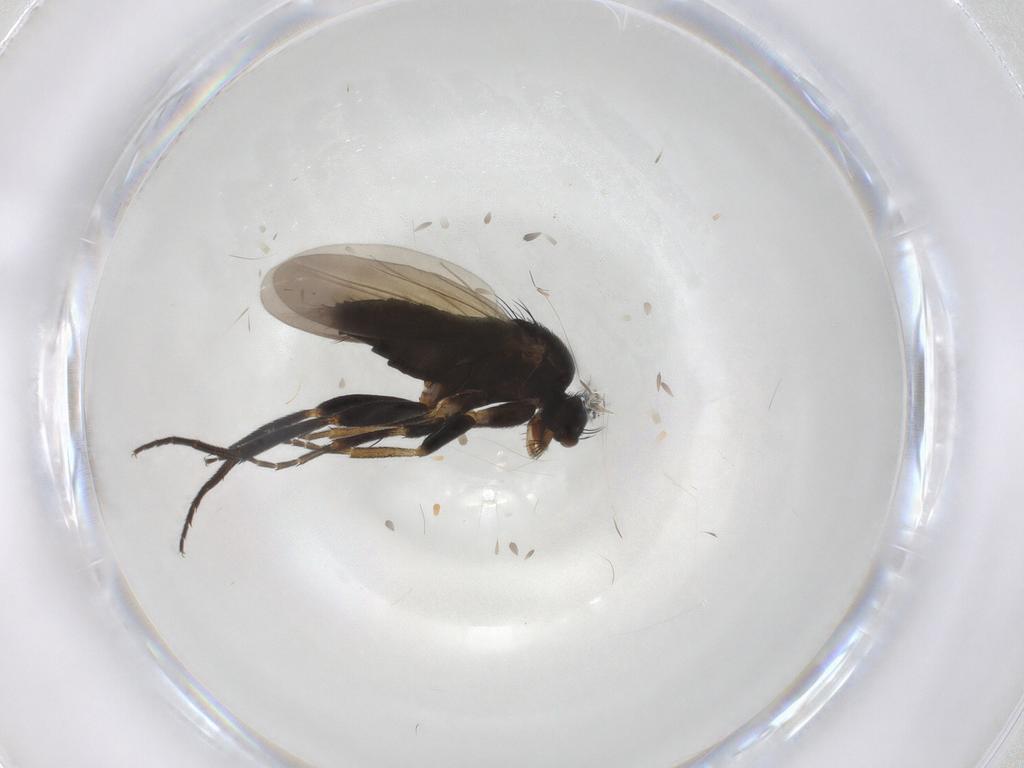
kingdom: Animalia
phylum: Arthropoda
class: Insecta
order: Diptera
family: Phoridae
